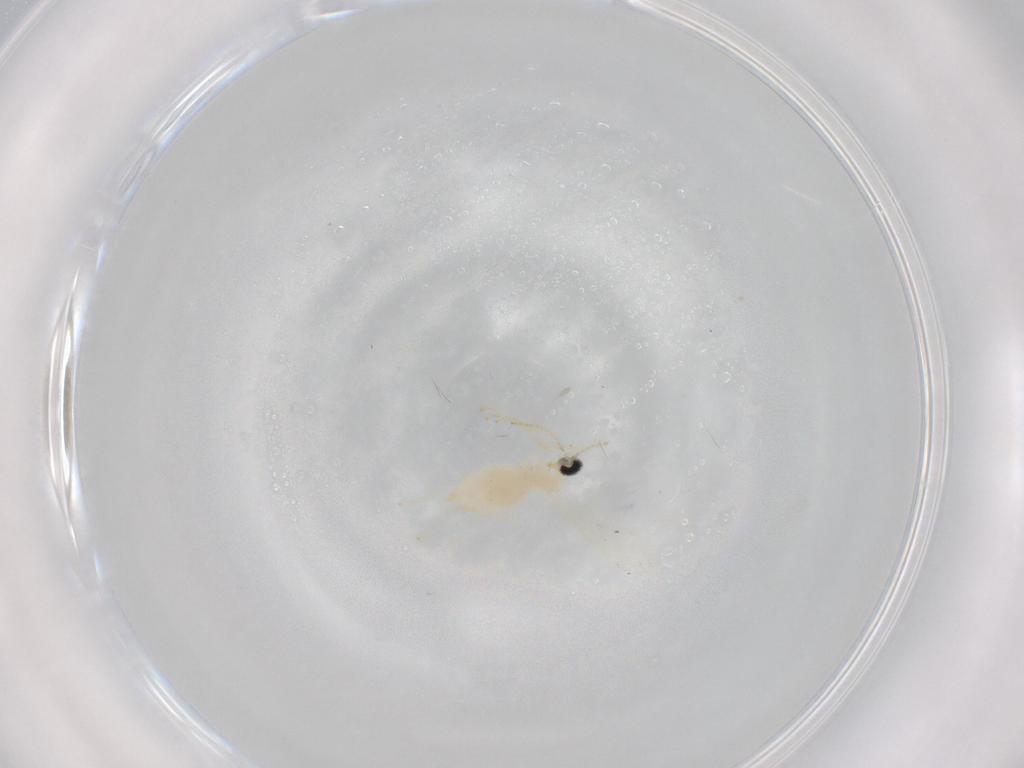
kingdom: Animalia
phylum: Arthropoda
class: Insecta
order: Diptera
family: Cecidomyiidae
